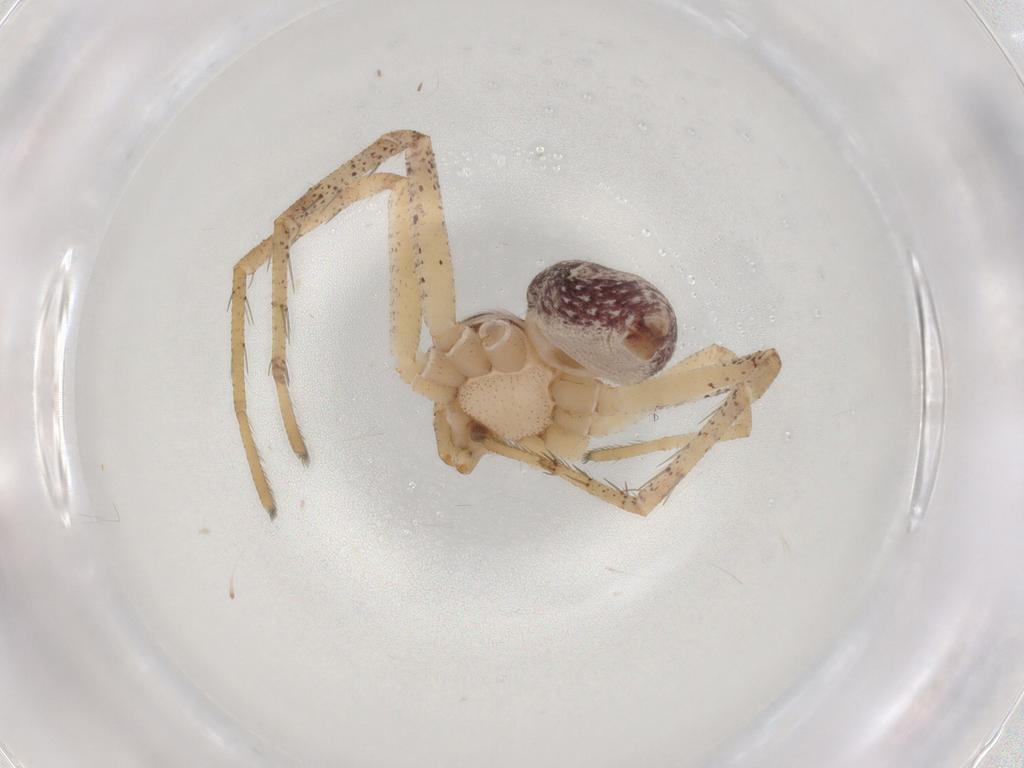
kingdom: Animalia
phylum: Arthropoda
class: Arachnida
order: Araneae
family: Philodromidae
